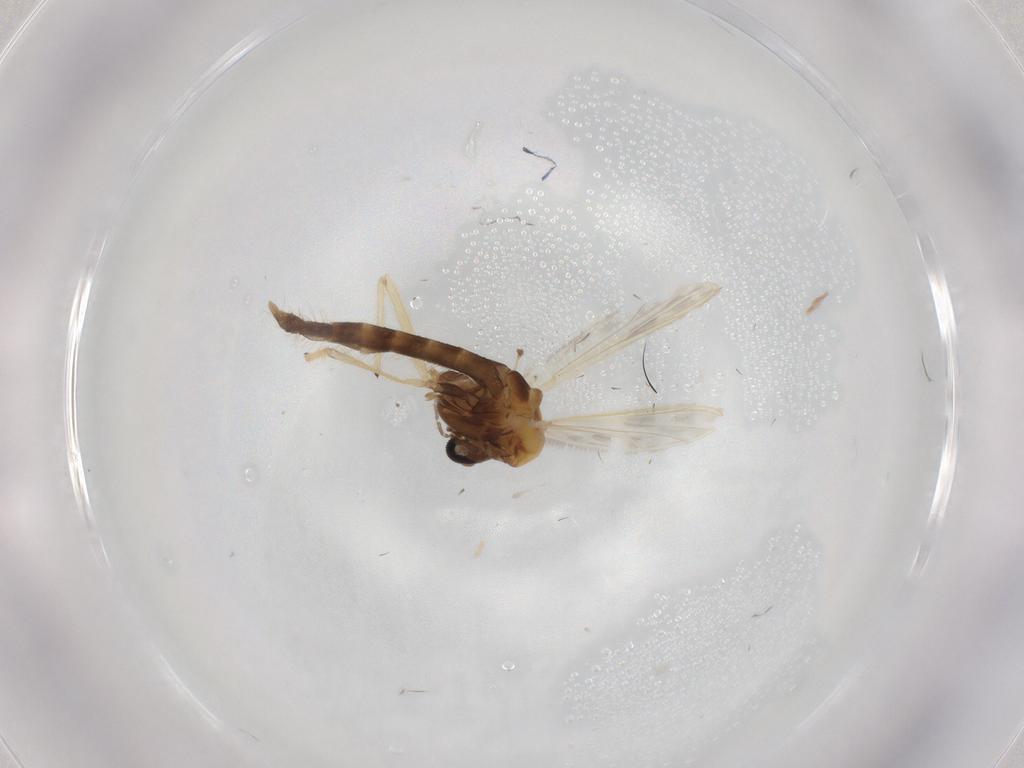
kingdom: Animalia
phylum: Arthropoda
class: Insecta
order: Diptera
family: Chironomidae
